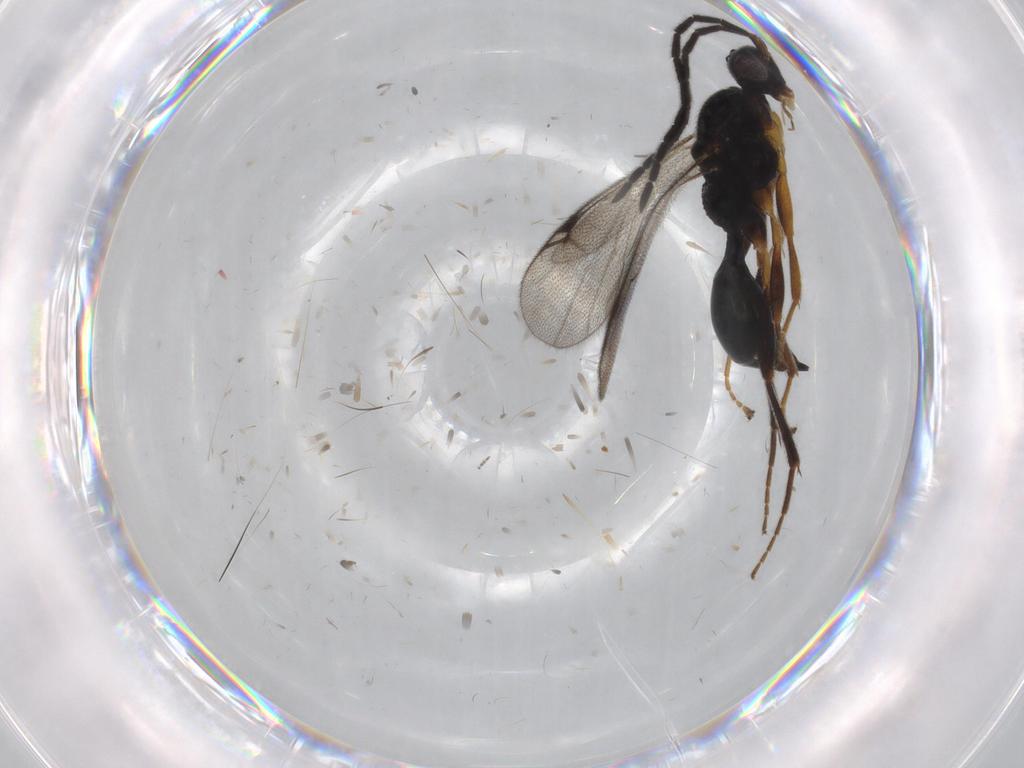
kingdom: Animalia
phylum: Arthropoda
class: Insecta
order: Hymenoptera
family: Proctotrupidae
